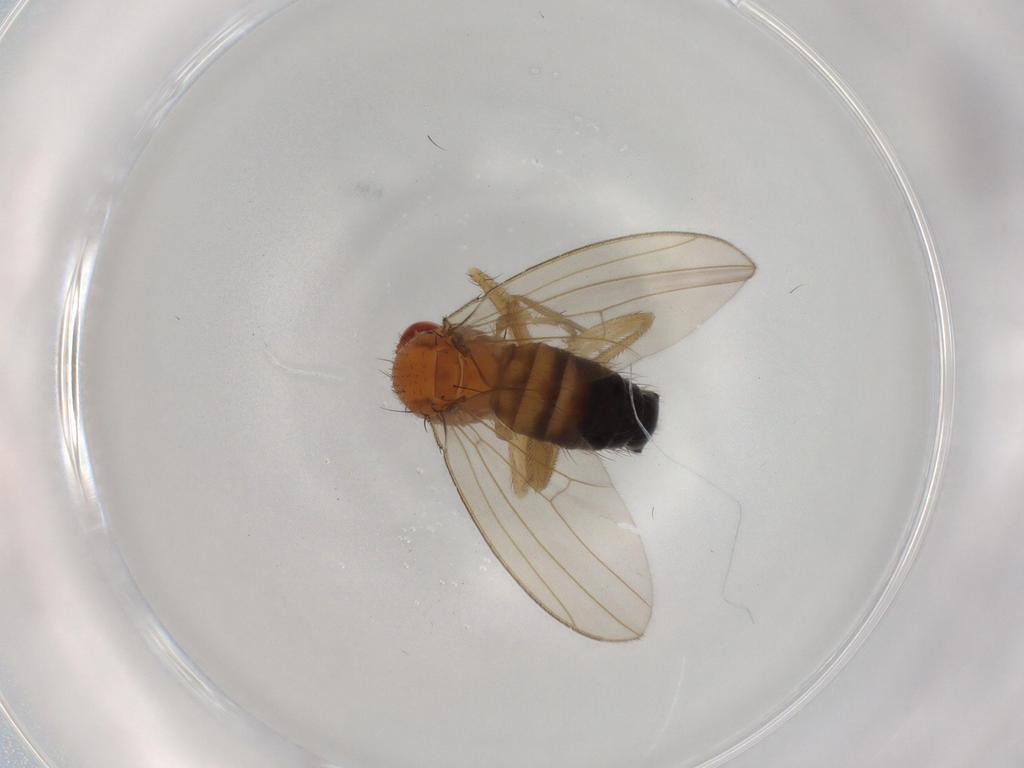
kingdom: Animalia
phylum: Arthropoda
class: Insecta
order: Diptera
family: Drosophilidae
